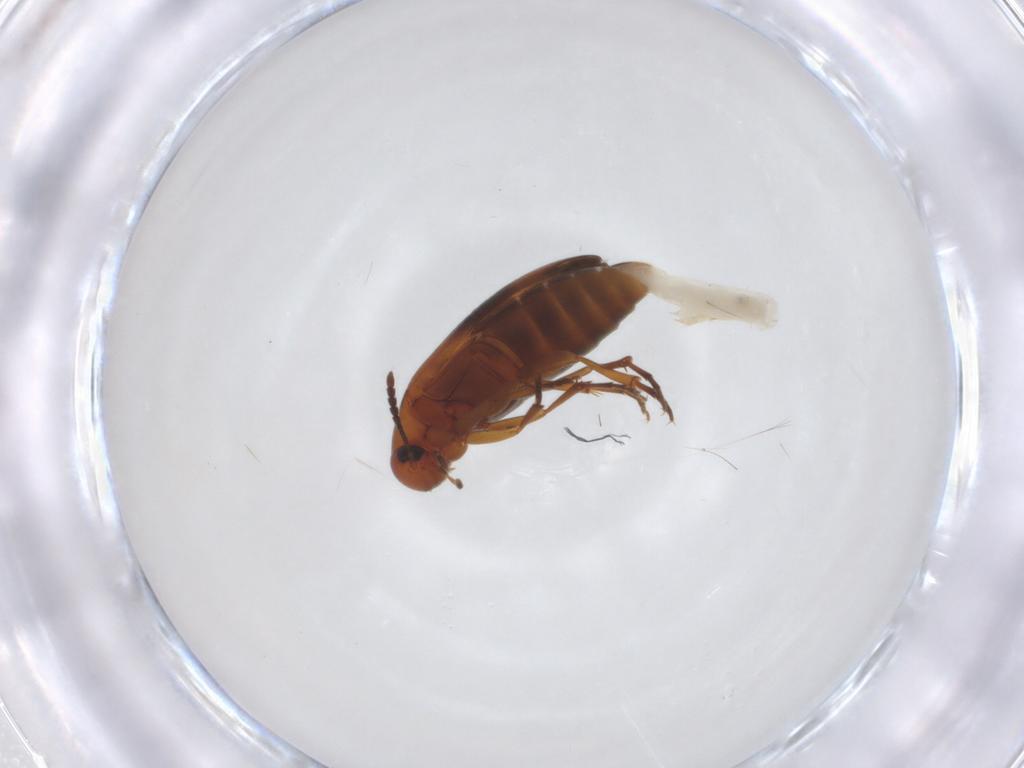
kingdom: Animalia
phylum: Arthropoda
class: Insecta
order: Coleoptera
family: Scraptiidae
